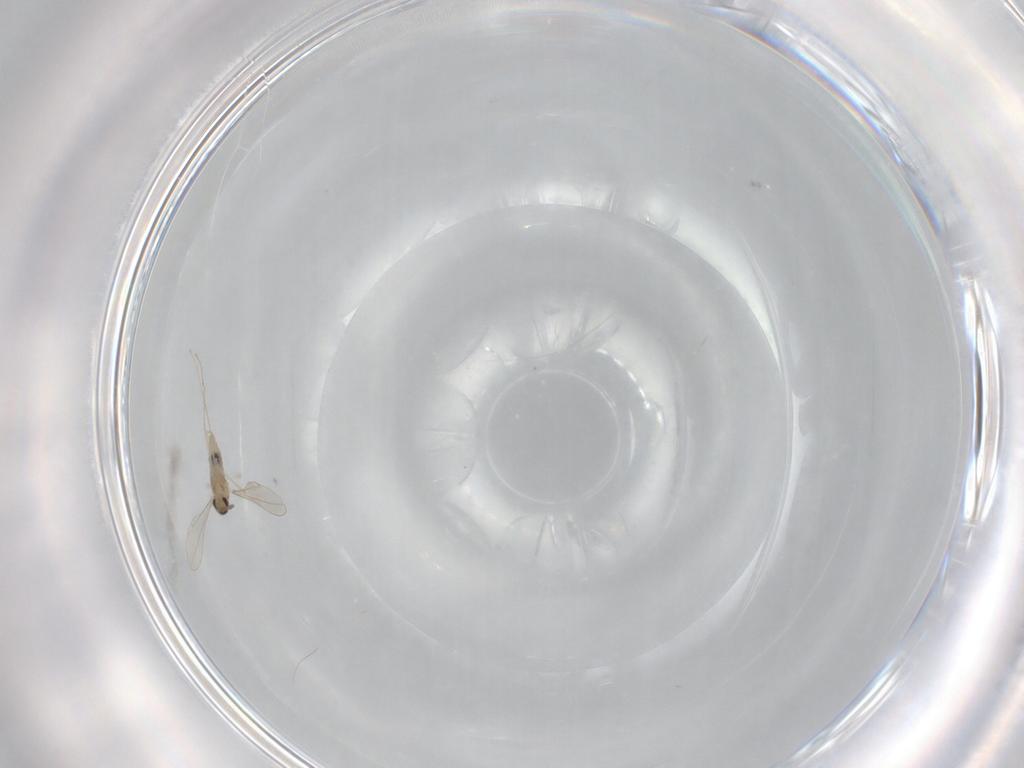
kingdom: Animalia
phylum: Arthropoda
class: Insecta
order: Diptera
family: Cecidomyiidae
